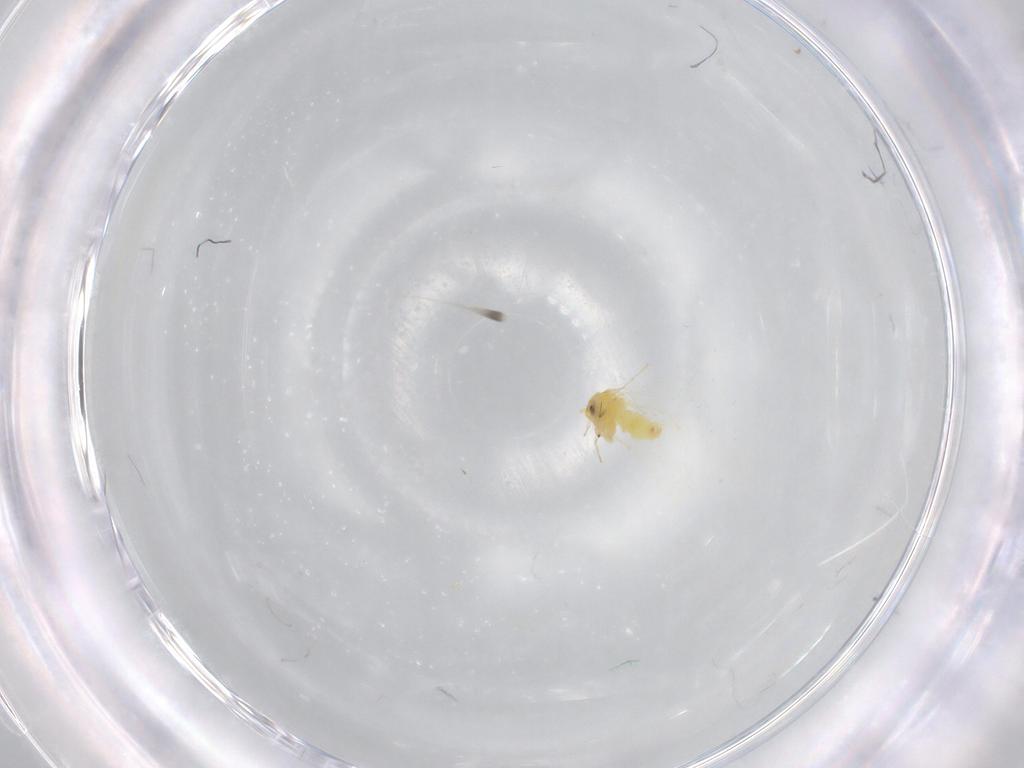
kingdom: Animalia
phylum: Arthropoda
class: Insecta
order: Hemiptera
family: Aleyrodidae
